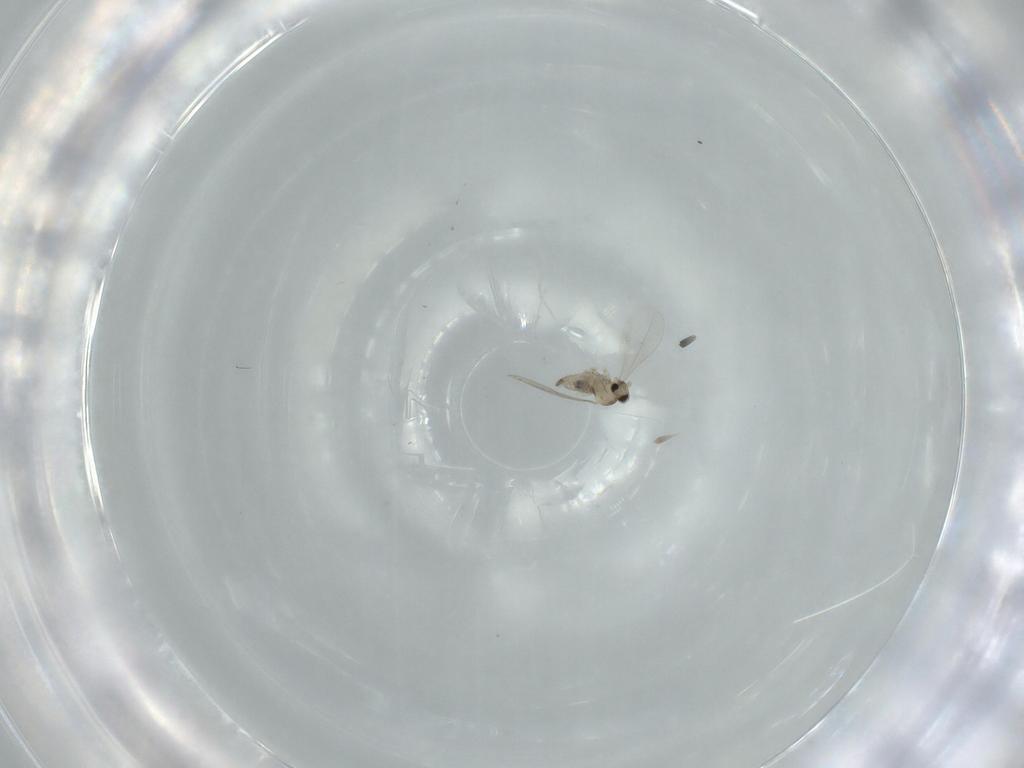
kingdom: Animalia
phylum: Arthropoda
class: Insecta
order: Diptera
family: Cecidomyiidae
